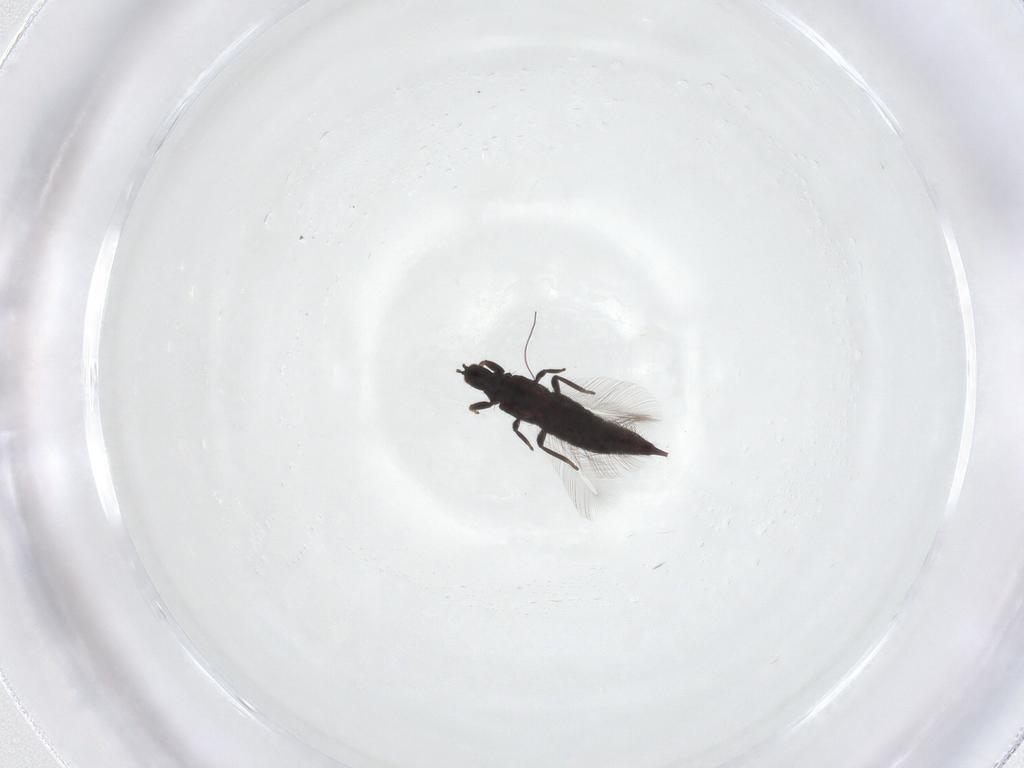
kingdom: Animalia
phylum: Arthropoda
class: Insecta
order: Thysanoptera
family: Phlaeothripidae
